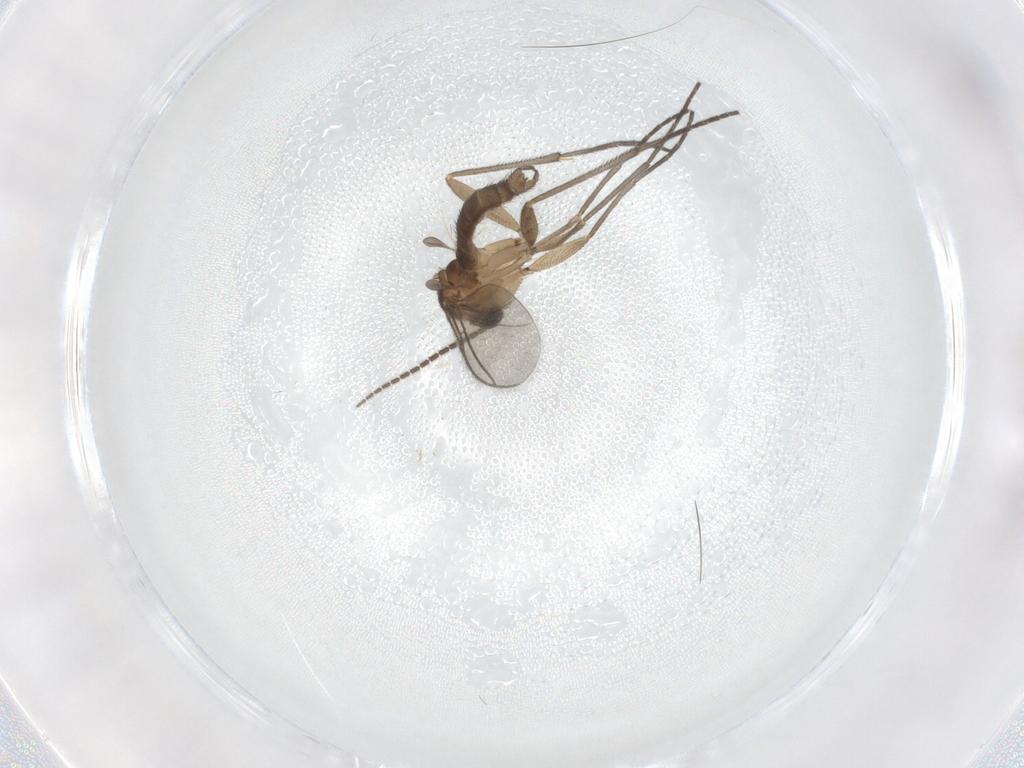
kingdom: Animalia
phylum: Arthropoda
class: Insecta
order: Diptera
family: Sciaridae
